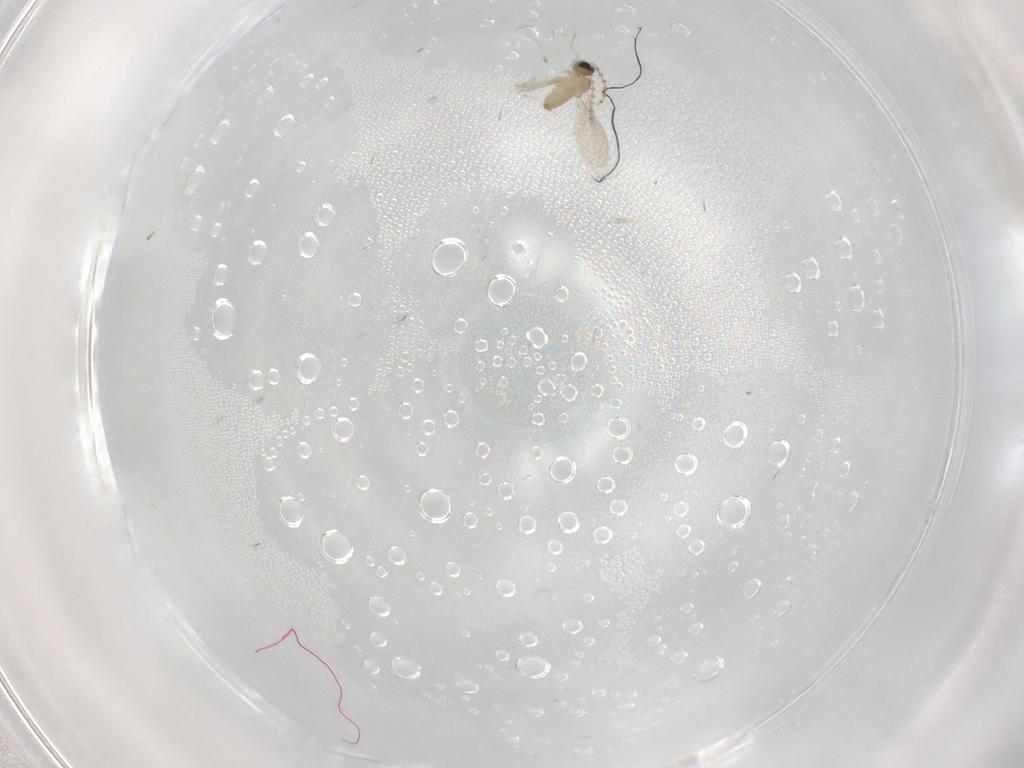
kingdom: Animalia
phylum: Arthropoda
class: Insecta
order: Diptera
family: Cecidomyiidae
